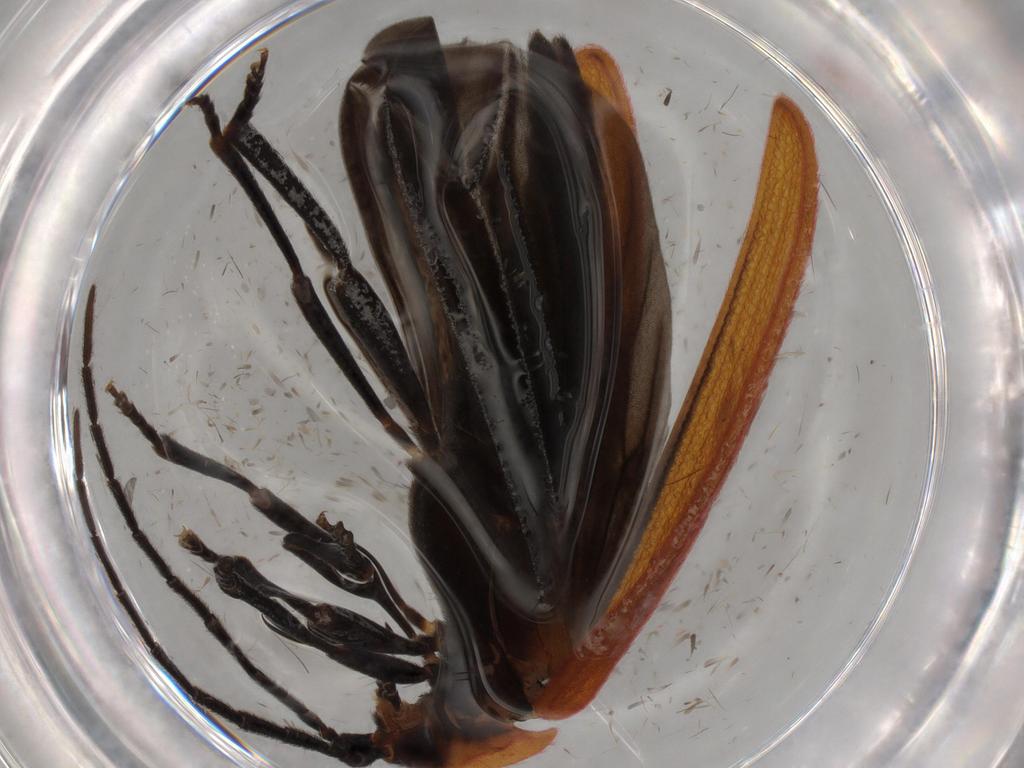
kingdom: Animalia
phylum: Arthropoda
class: Insecta
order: Coleoptera
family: Lycidae
